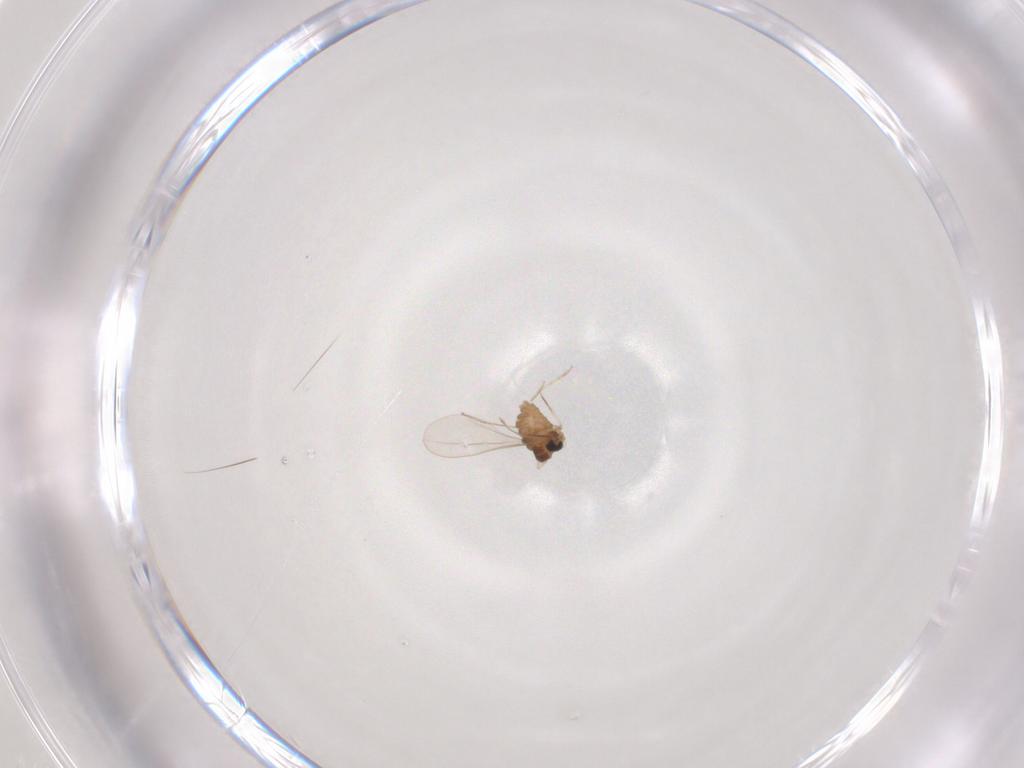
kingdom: Animalia
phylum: Arthropoda
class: Insecta
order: Diptera
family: Cecidomyiidae
